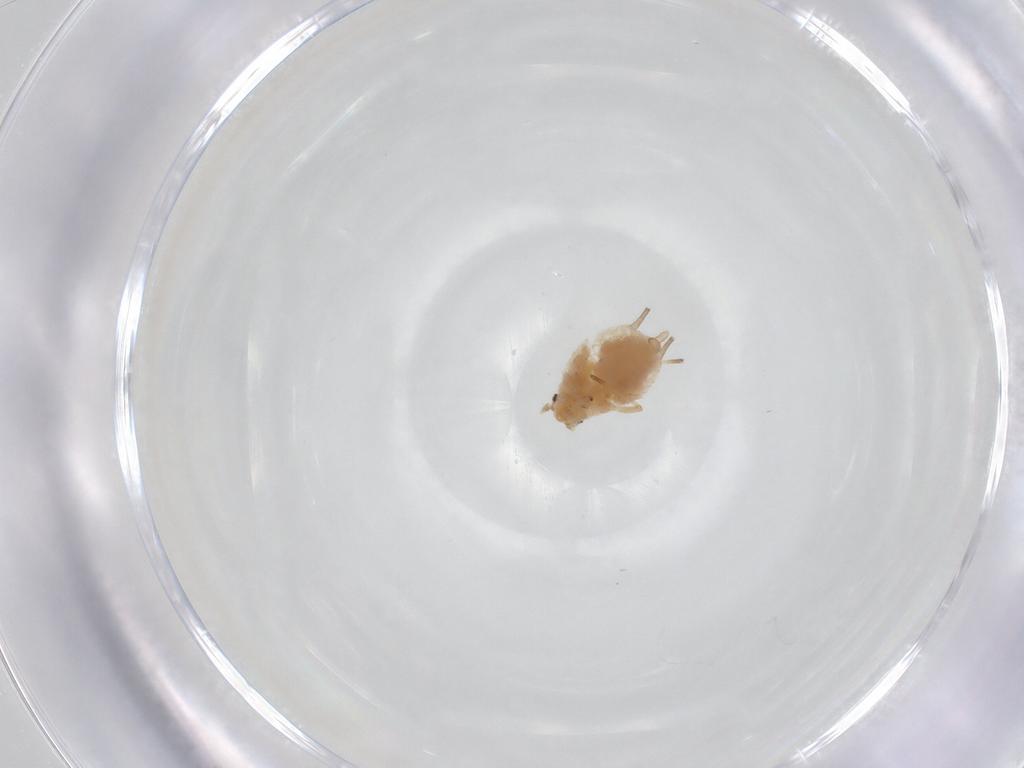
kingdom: Animalia
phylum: Arthropoda
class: Insecta
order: Hemiptera
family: Aphididae
